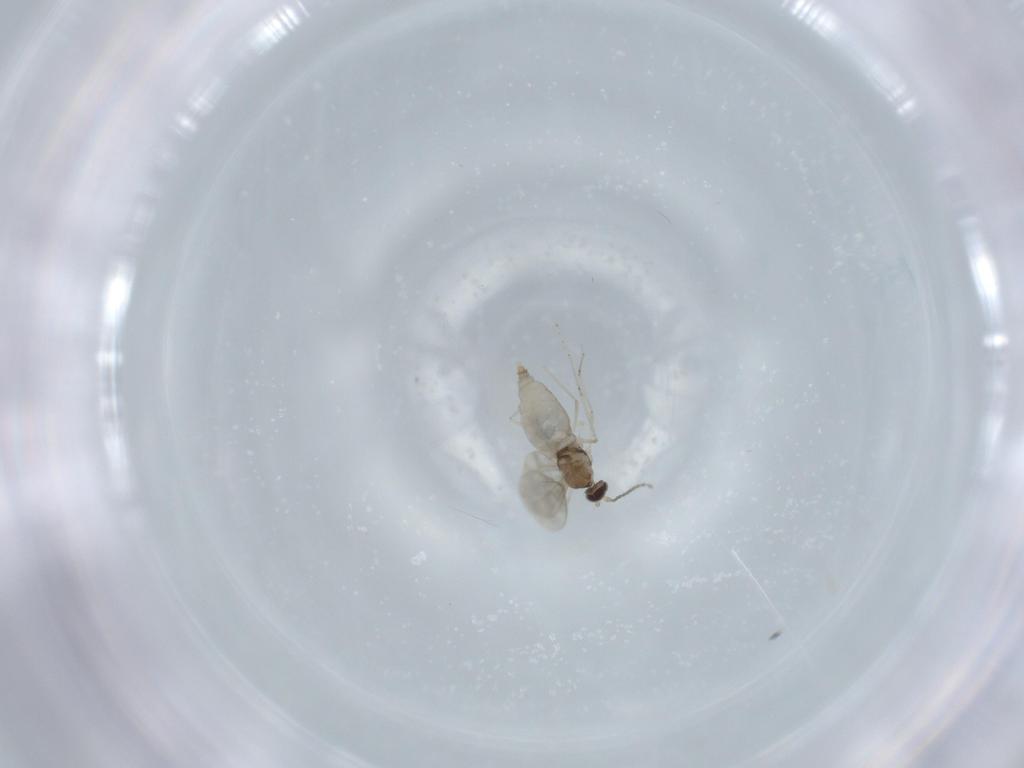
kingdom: Animalia
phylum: Arthropoda
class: Insecta
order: Diptera
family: Cecidomyiidae
